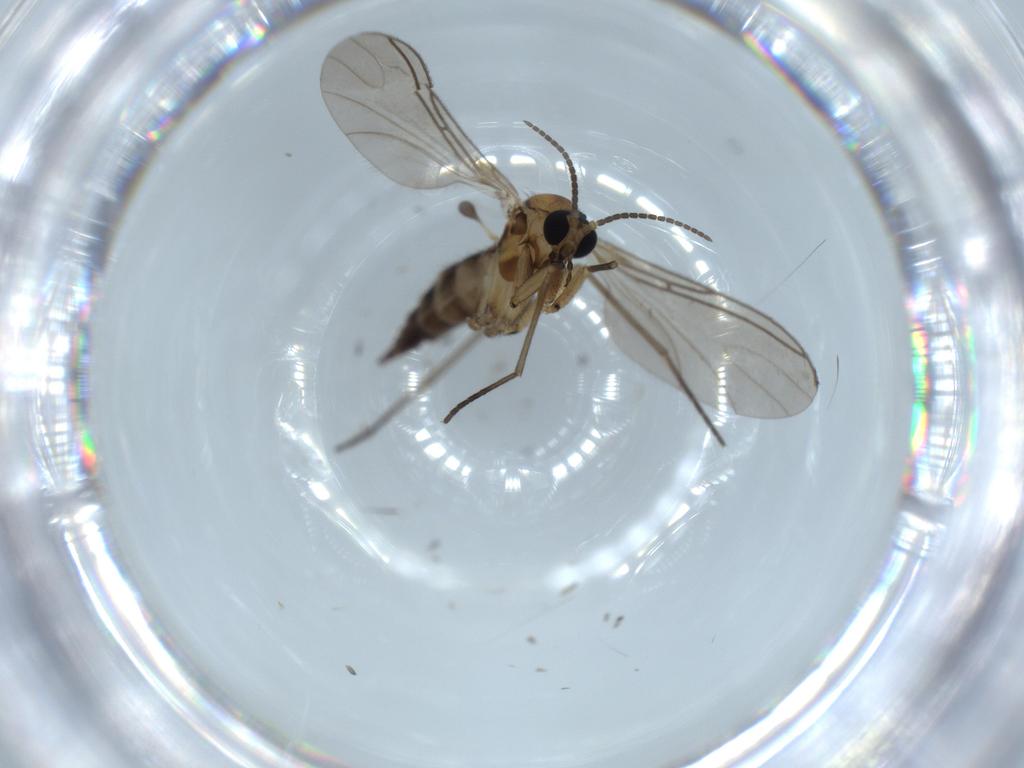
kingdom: Animalia
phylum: Arthropoda
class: Insecta
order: Diptera
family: Sciaridae
